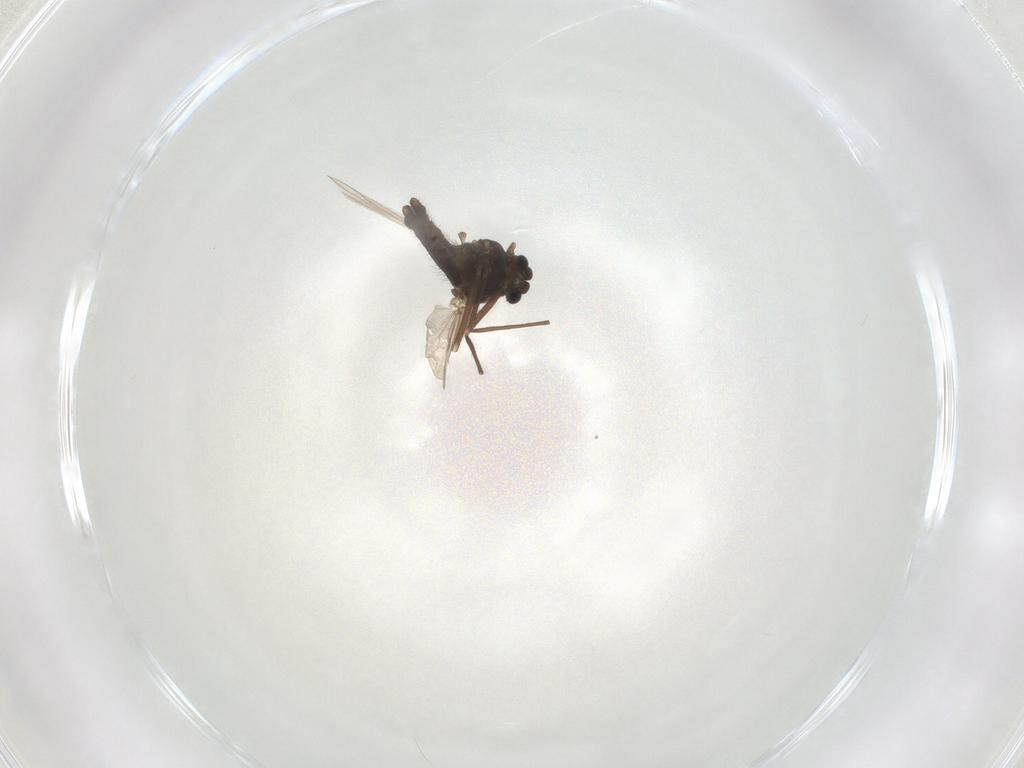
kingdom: Animalia
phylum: Arthropoda
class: Insecta
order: Diptera
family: Chironomidae
